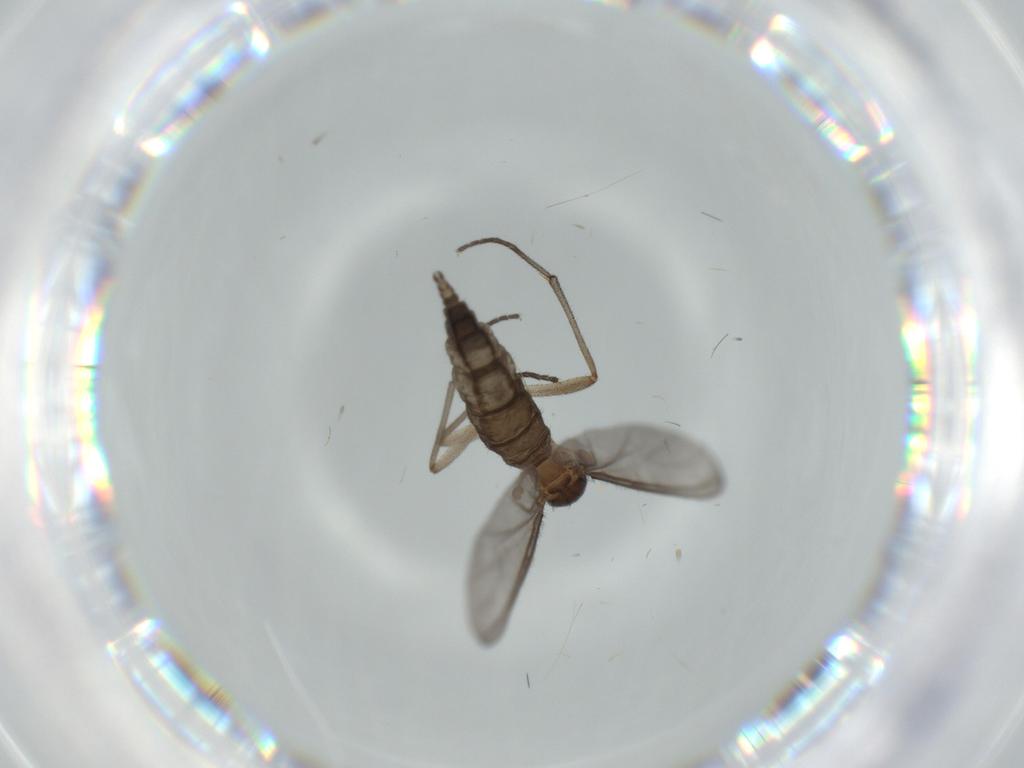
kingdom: Animalia
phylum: Arthropoda
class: Insecta
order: Diptera
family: Sciaridae
